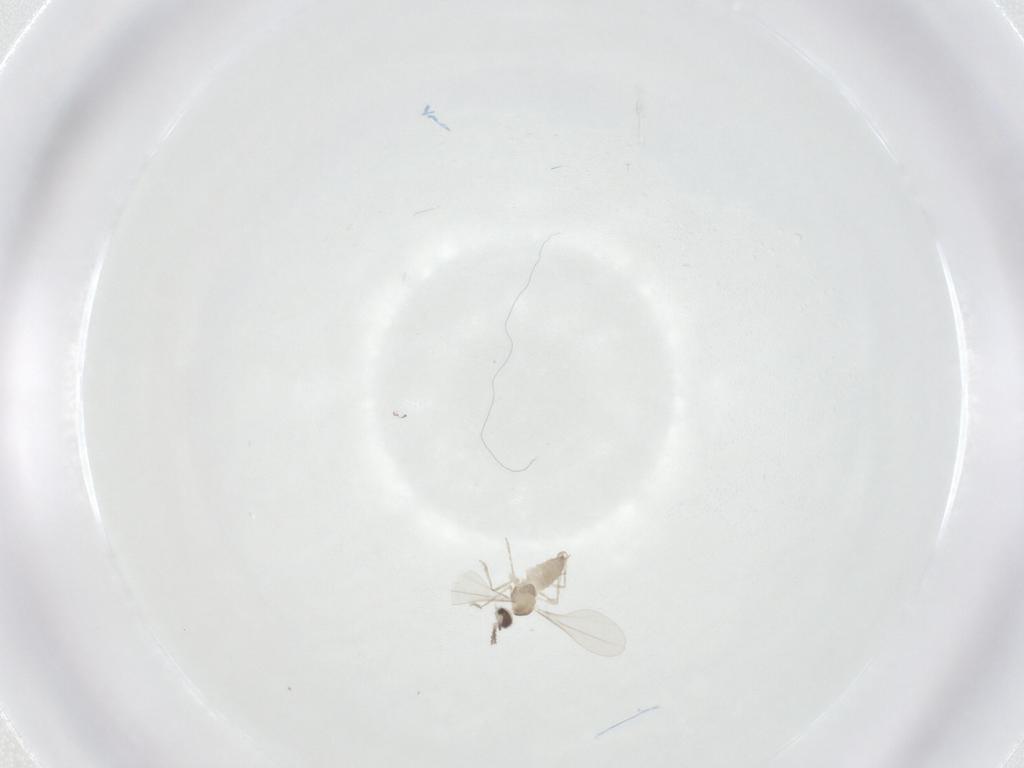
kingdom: Animalia
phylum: Arthropoda
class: Insecta
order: Diptera
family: Cecidomyiidae
